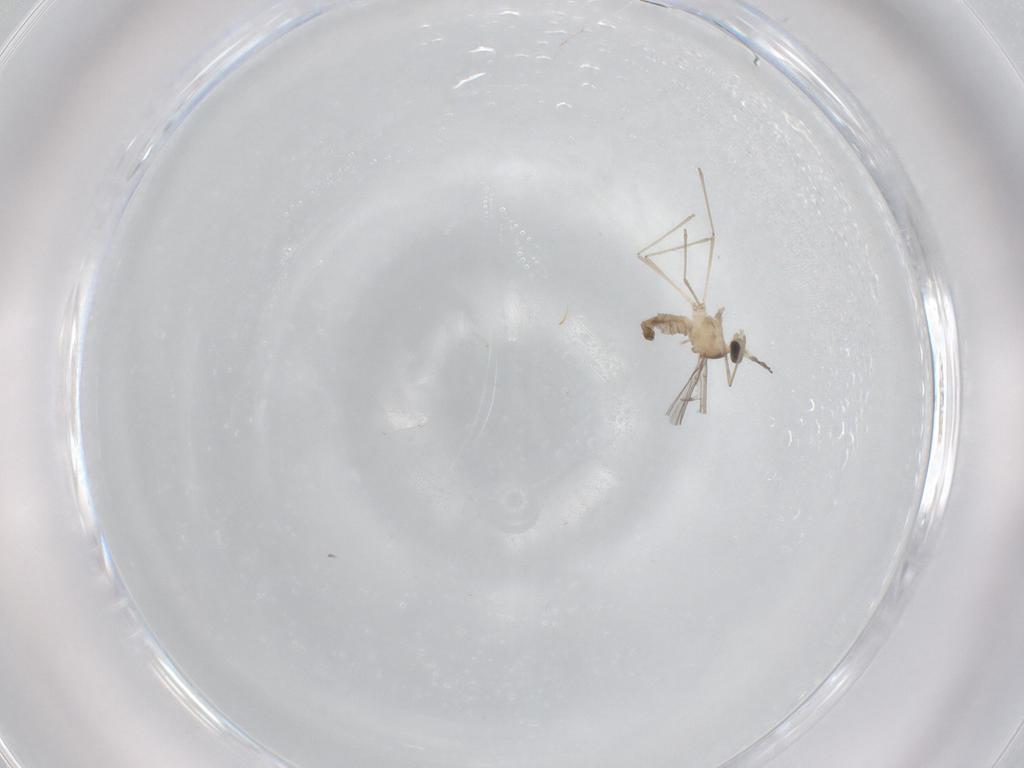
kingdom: Animalia
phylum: Arthropoda
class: Insecta
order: Diptera
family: Cecidomyiidae
